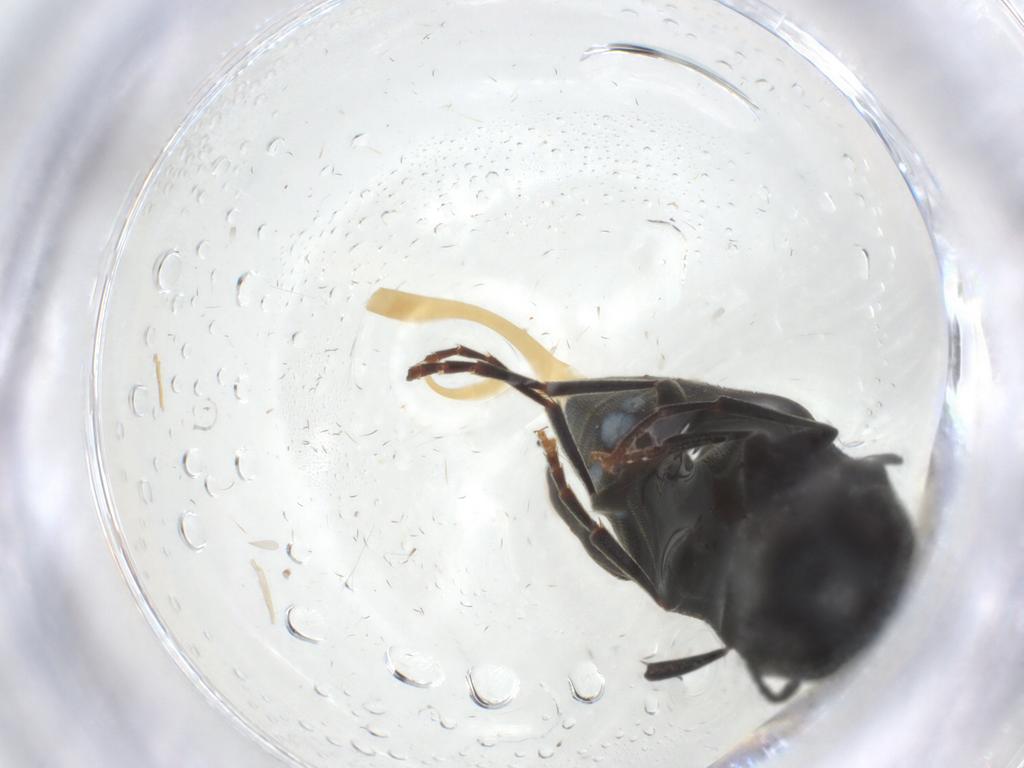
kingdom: Animalia
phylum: Arthropoda
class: Insecta
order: Coleoptera
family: Eucnemidae
